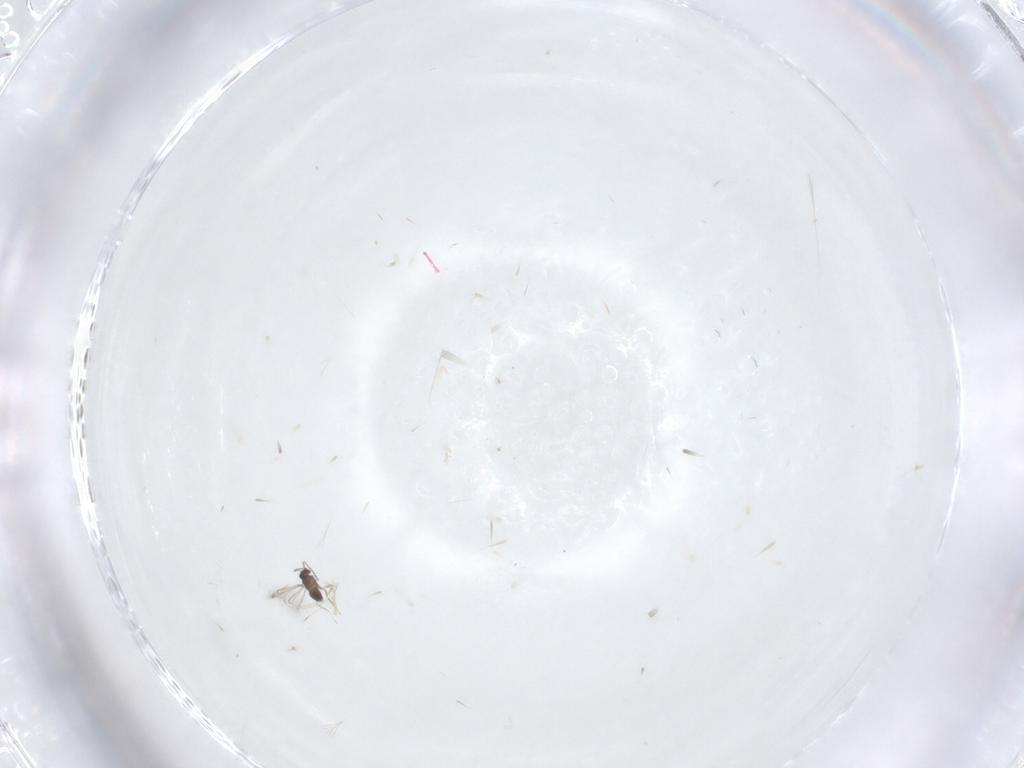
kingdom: Animalia
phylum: Arthropoda
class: Insecta
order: Hymenoptera
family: Mymaridae
